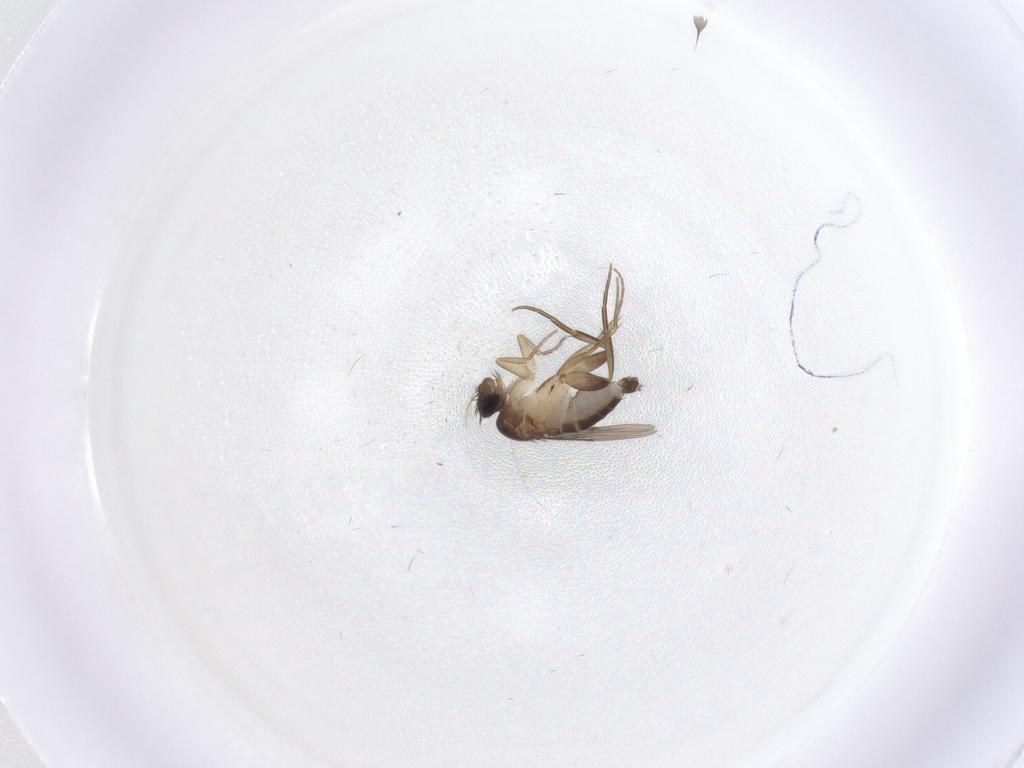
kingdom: Animalia
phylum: Arthropoda
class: Insecta
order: Diptera
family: Phoridae
